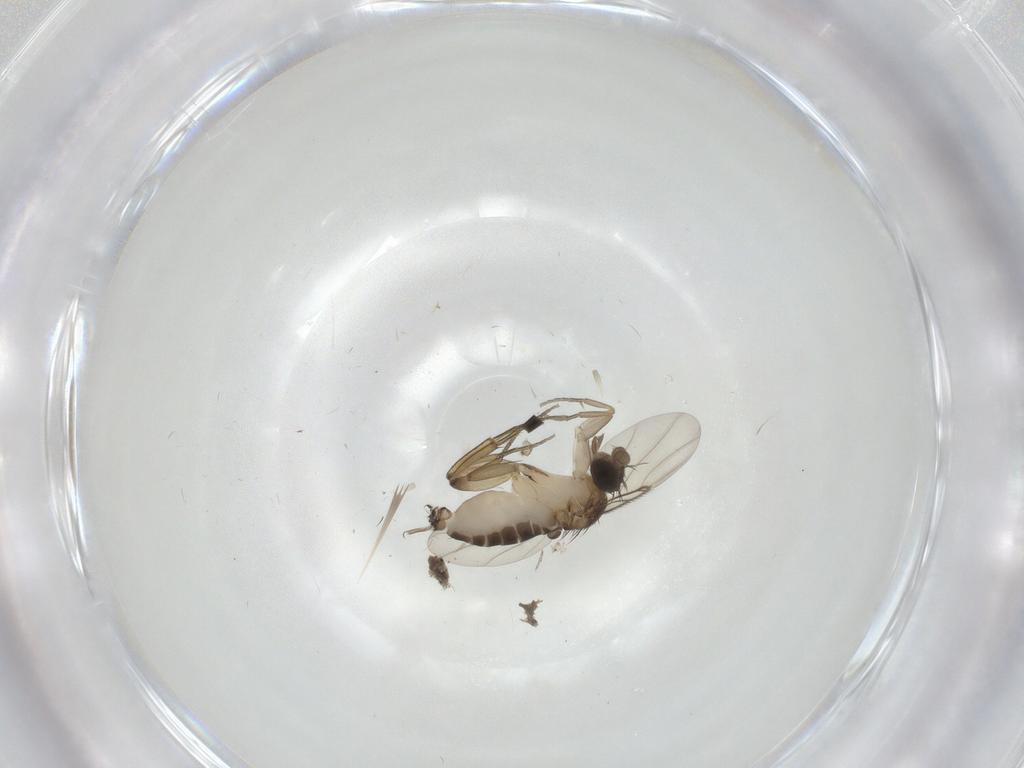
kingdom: Animalia
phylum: Arthropoda
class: Insecta
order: Diptera
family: Phoridae
